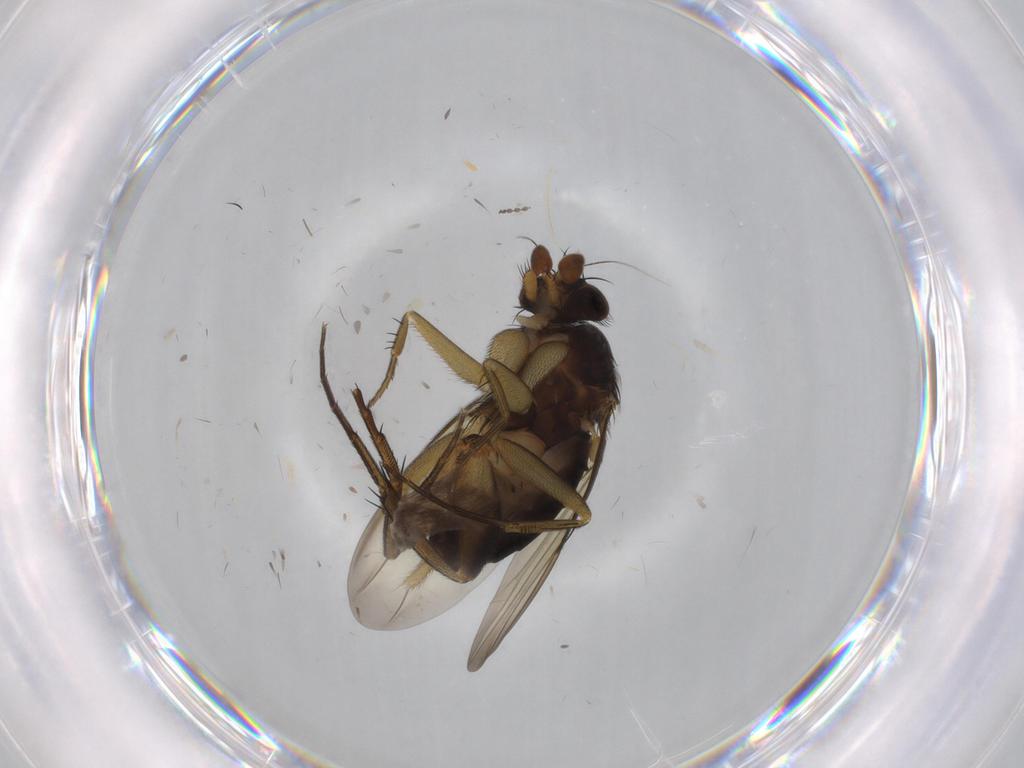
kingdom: Animalia
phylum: Arthropoda
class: Insecta
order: Diptera
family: Phoridae
